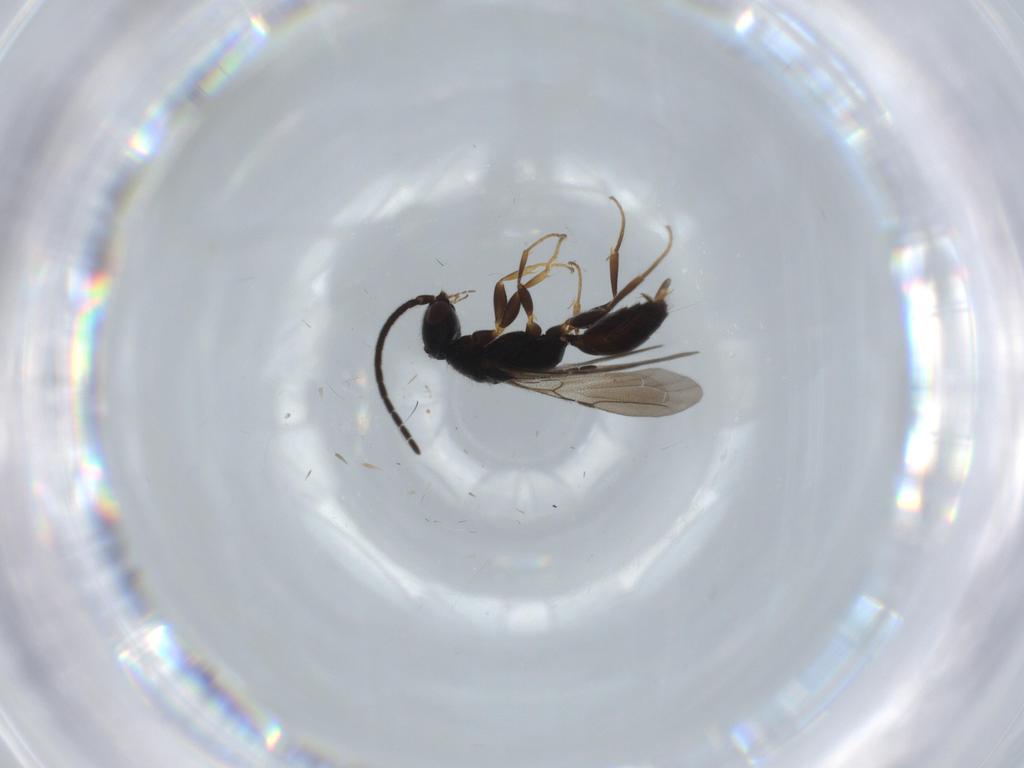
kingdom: Animalia
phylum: Arthropoda
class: Insecta
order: Hymenoptera
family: Bethylidae
